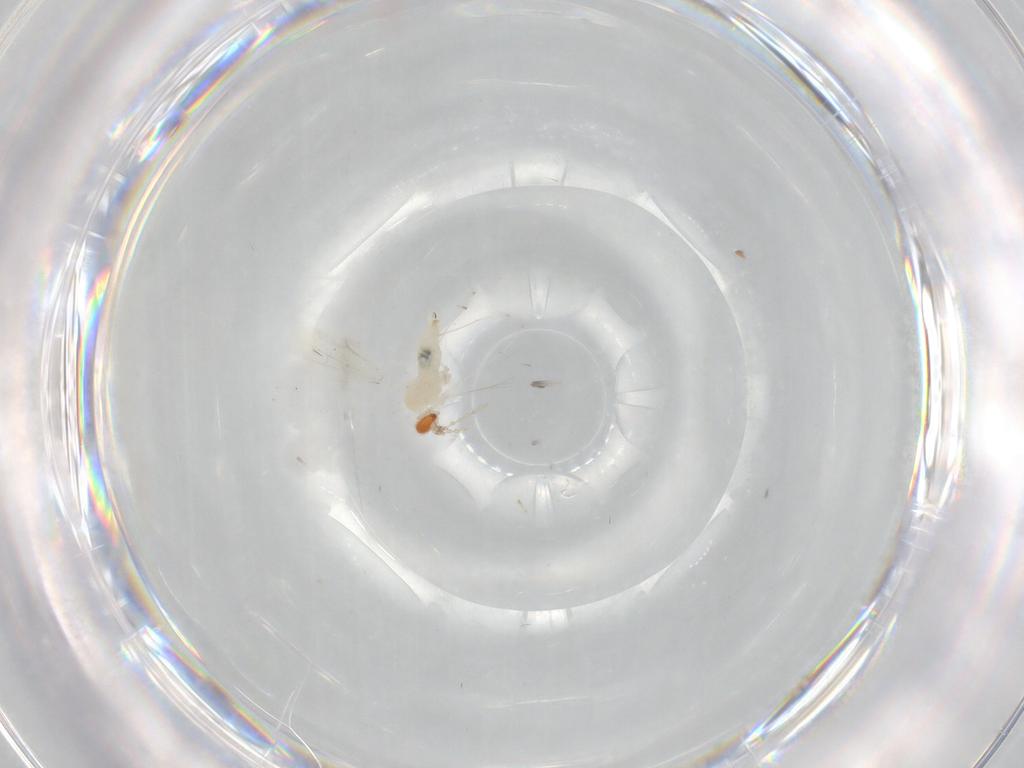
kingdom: Animalia
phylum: Arthropoda
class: Insecta
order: Diptera
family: Cecidomyiidae
